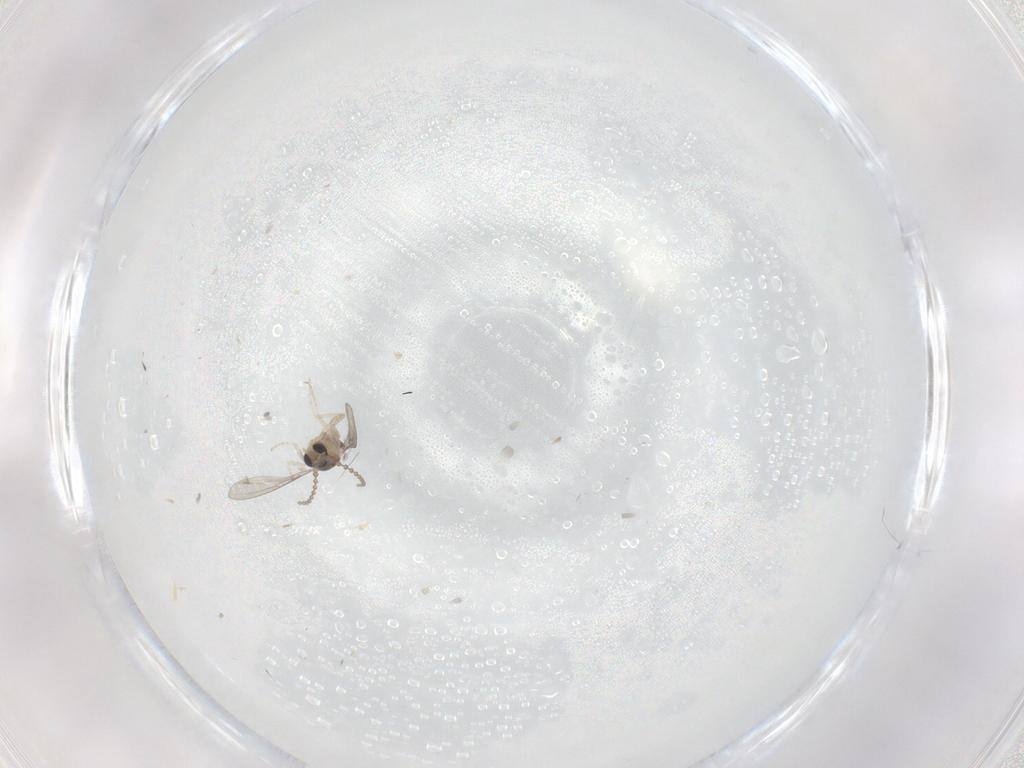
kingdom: Animalia
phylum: Arthropoda
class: Insecta
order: Diptera
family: Cecidomyiidae
